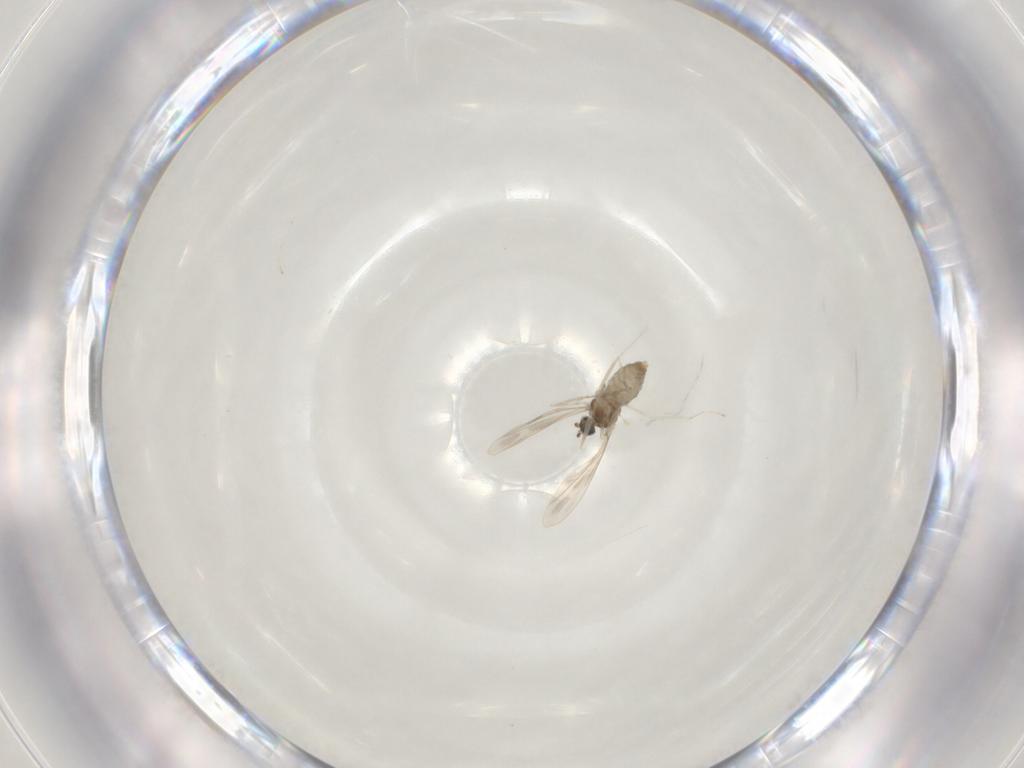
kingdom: Animalia
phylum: Arthropoda
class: Insecta
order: Diptera
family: Cecidomyiidae
